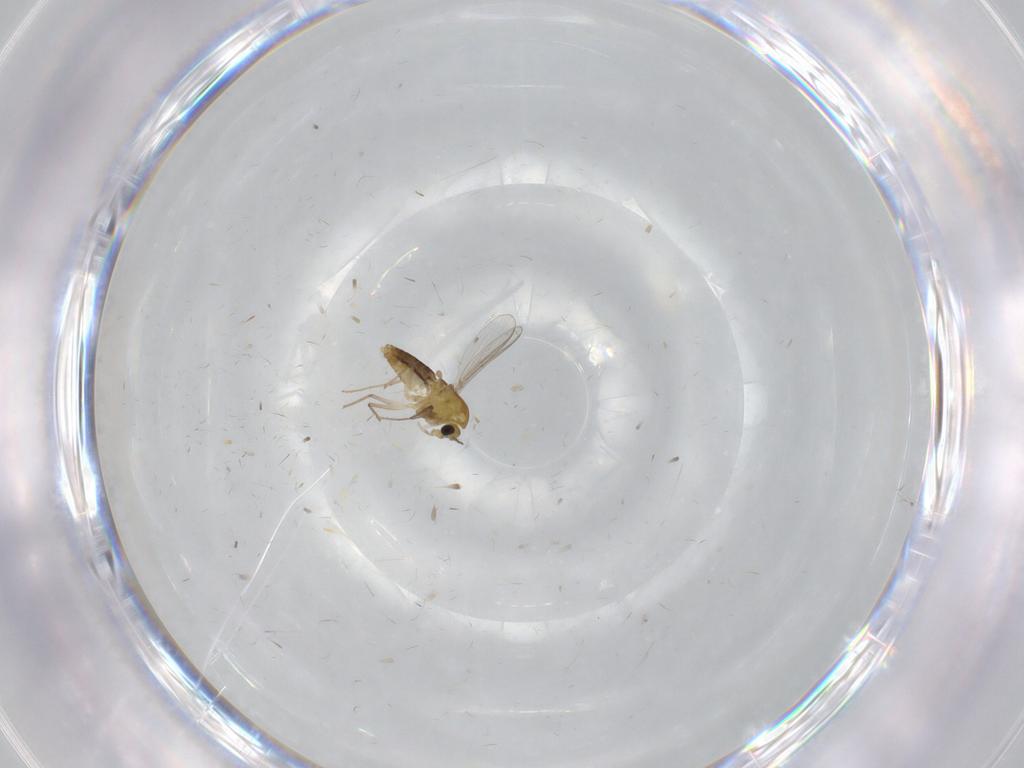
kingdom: Animalia
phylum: Arthropoda
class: Insecta
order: Diptera
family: Chironomidae
